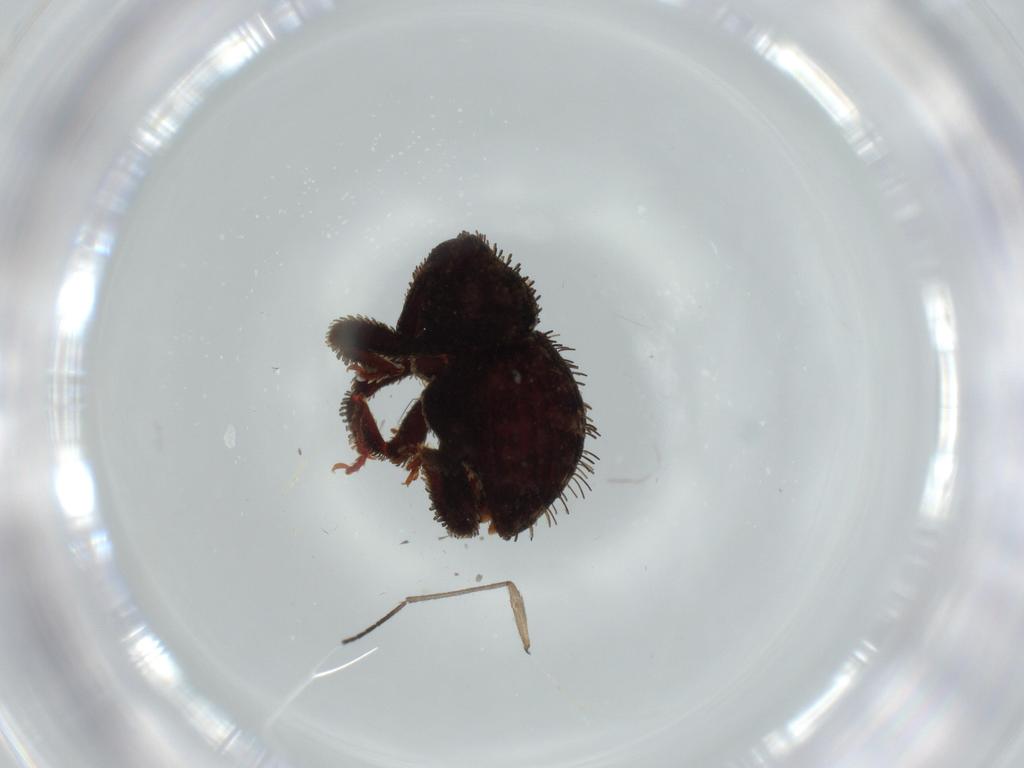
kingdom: Animalia
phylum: Arthropoda
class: Insecta
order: Coleoptera
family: Curculionidae
